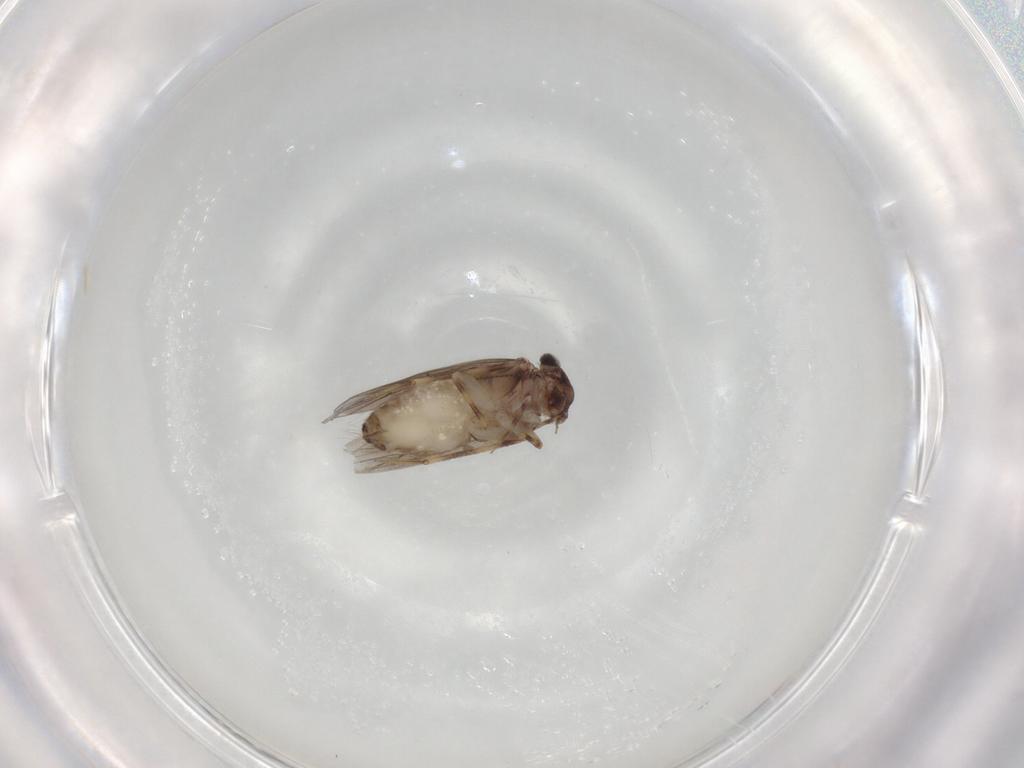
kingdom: Animalia
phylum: Arthropoda
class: Insecta
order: Psocodea
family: Lepidopsocidae
